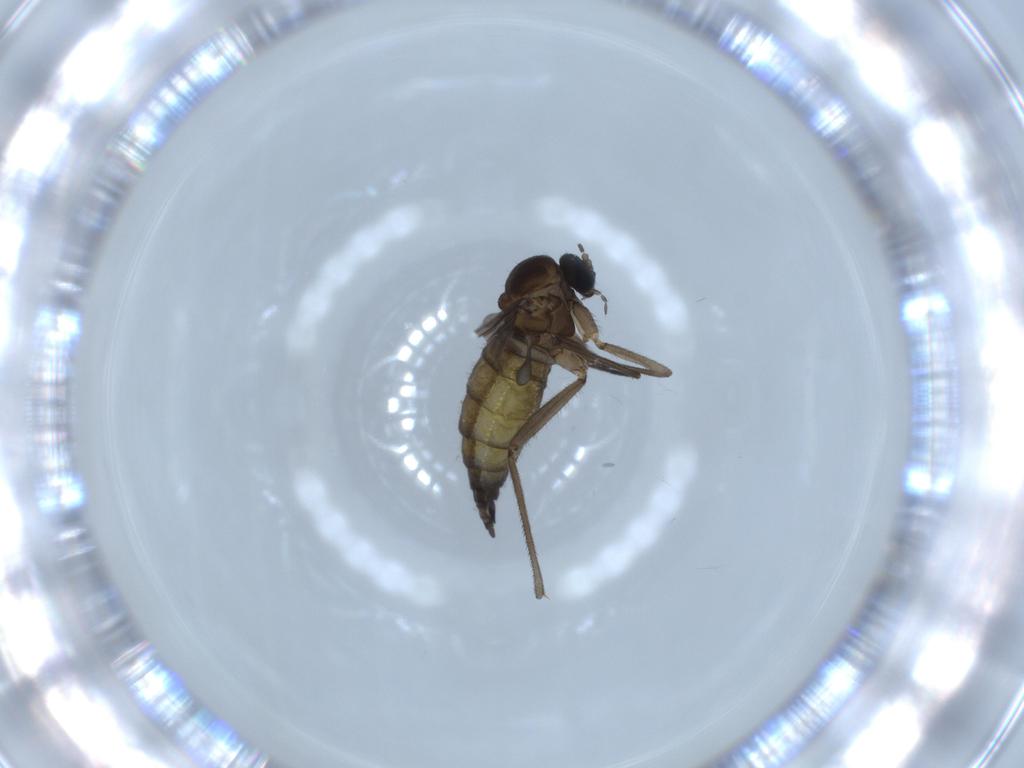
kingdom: Animalia
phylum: Arthropoda
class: Insecta
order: Diptera
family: Sciaridae
